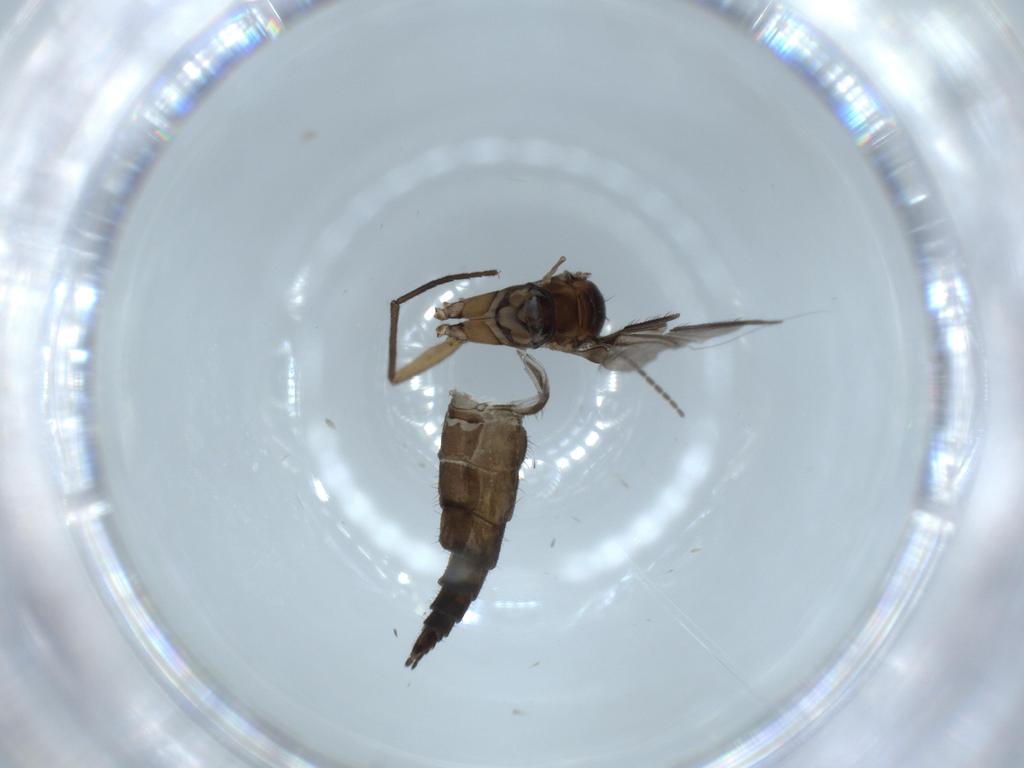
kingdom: Animalia
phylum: Arthropoda
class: Insecta
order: Diptera
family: Sciaridae
